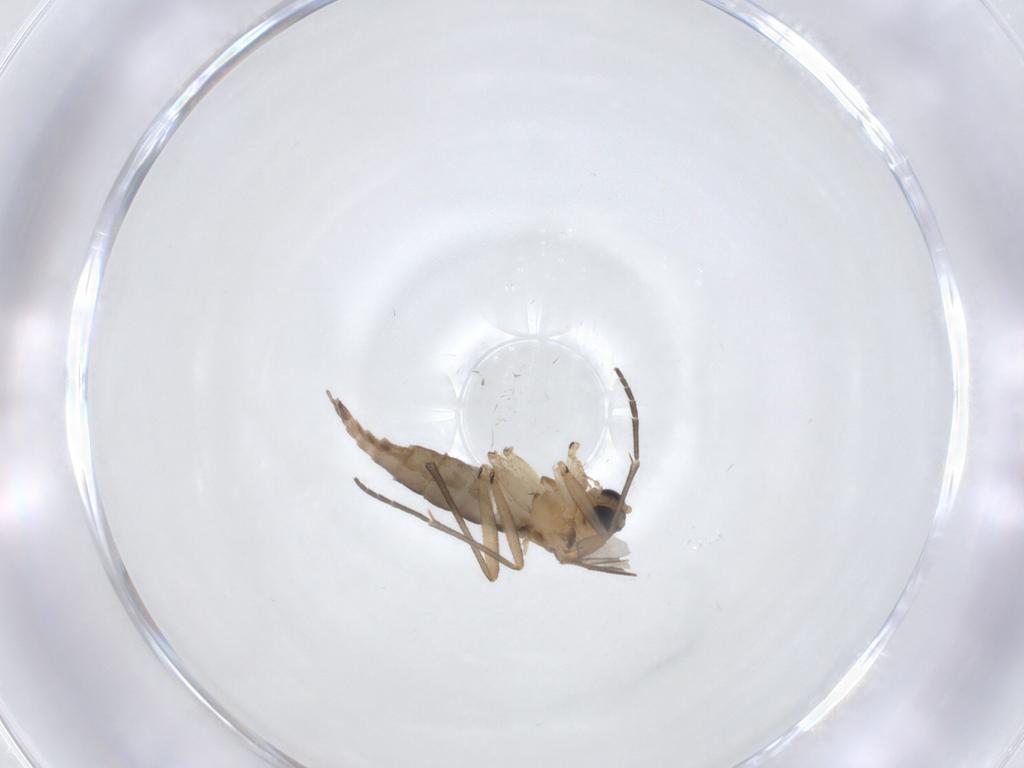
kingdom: Animalia
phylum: Arthropoda
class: Insecta
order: Diptera
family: Sciaridae
